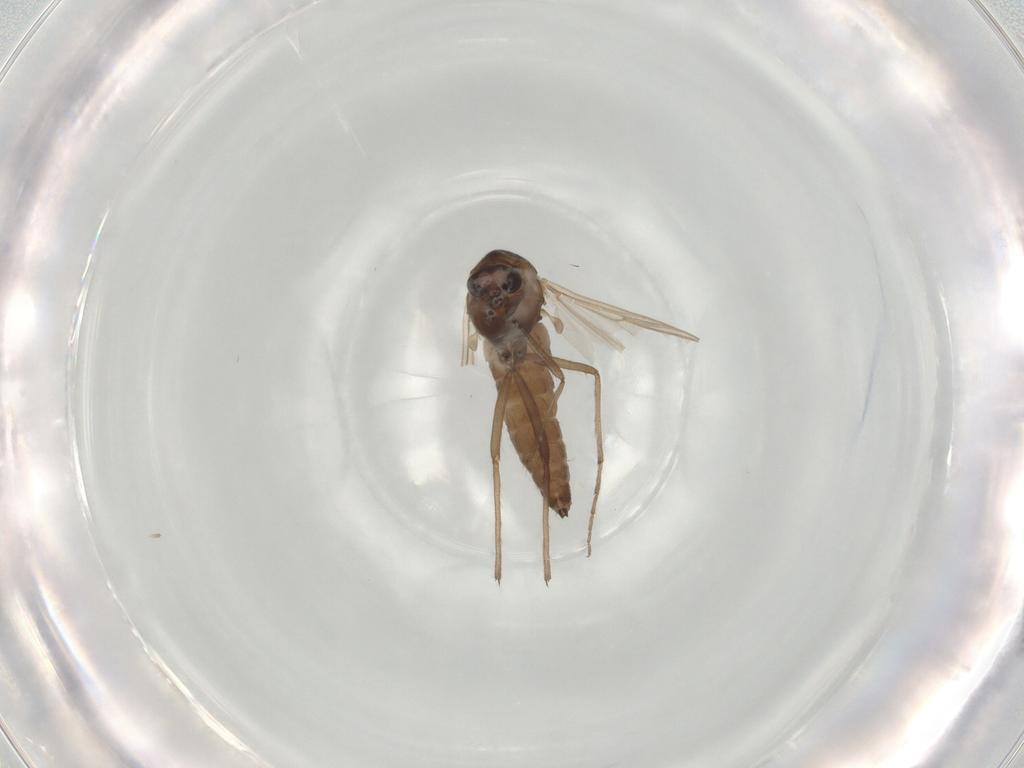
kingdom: Animalia
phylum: Arthropoda
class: Insecta
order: Diptera
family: Chironomidae
